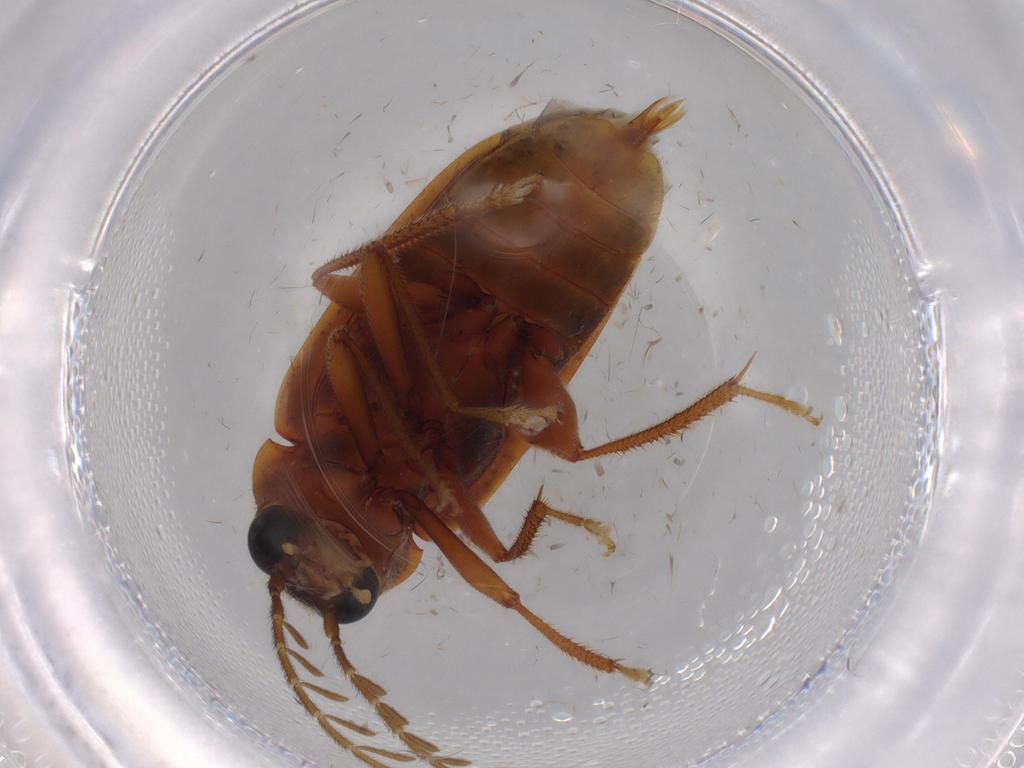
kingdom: Animalia
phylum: Arthropoda
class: Insecta
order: Coleoptera
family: Ptilodactylidae
